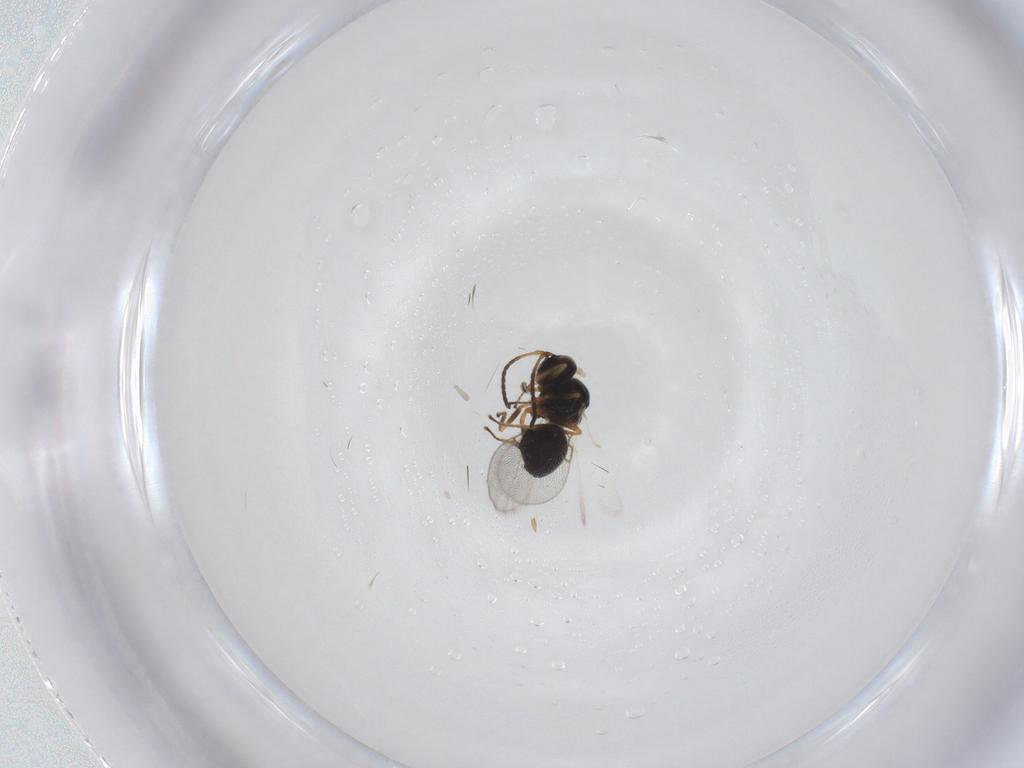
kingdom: Animalia
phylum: Arthropoda
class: Insecta
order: Hymenoptera
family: Figitidae
